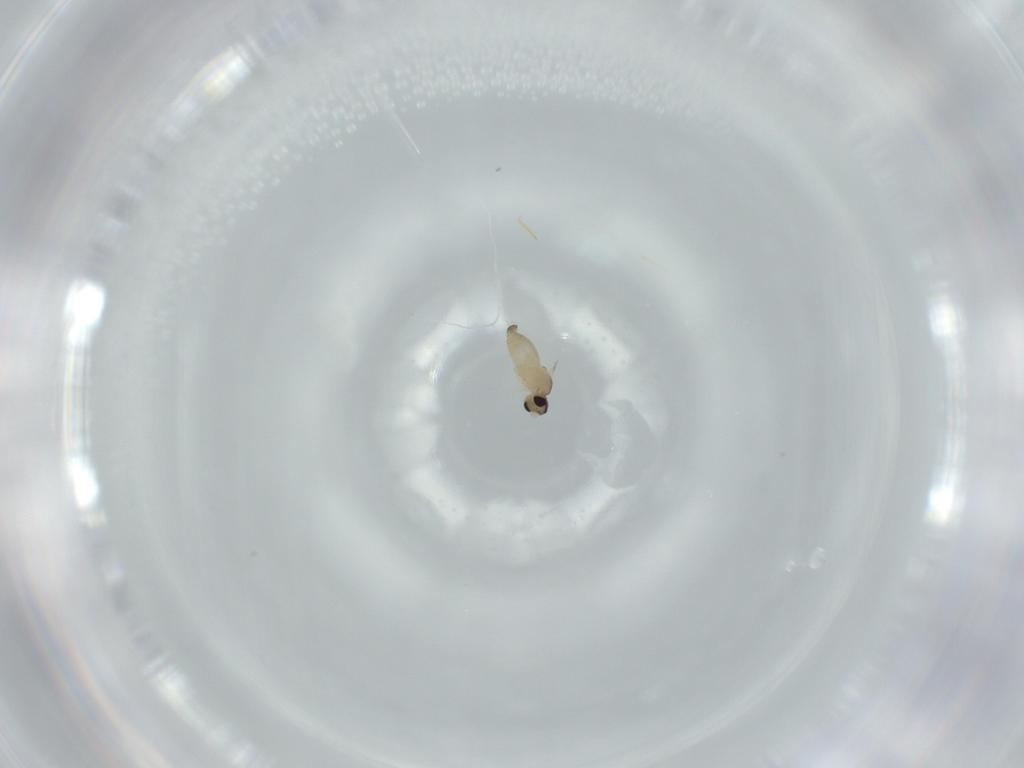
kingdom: Animalia
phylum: Arthropoda
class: Insecta
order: Diptera
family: Cecidomyiidae
